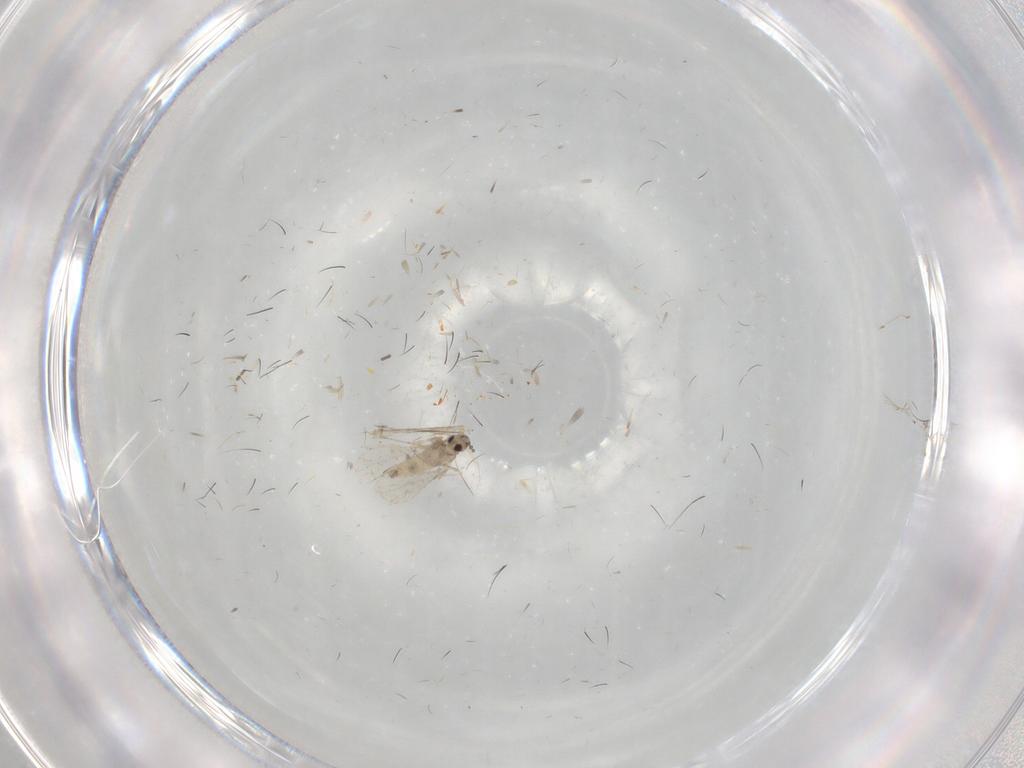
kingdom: Animalia
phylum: Arthropoda
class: Insecta
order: Diptera
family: Cecidomyiidae
